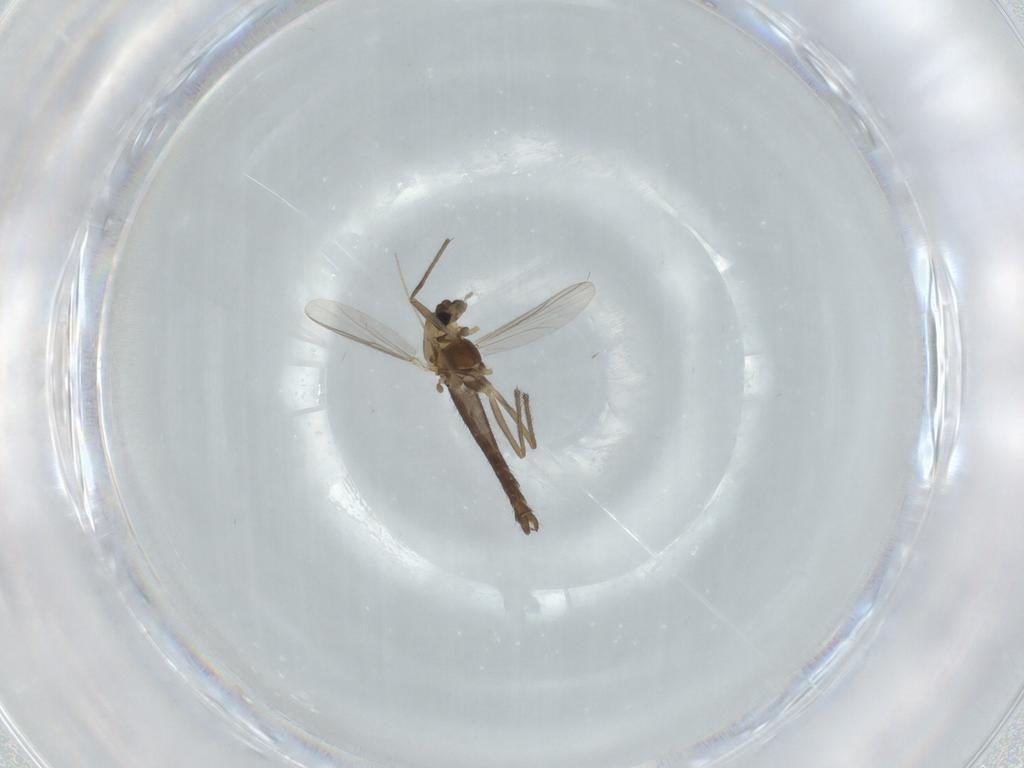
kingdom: Animalia
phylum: Arthropoda
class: Insecta
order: Diptera
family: Chironomidae
